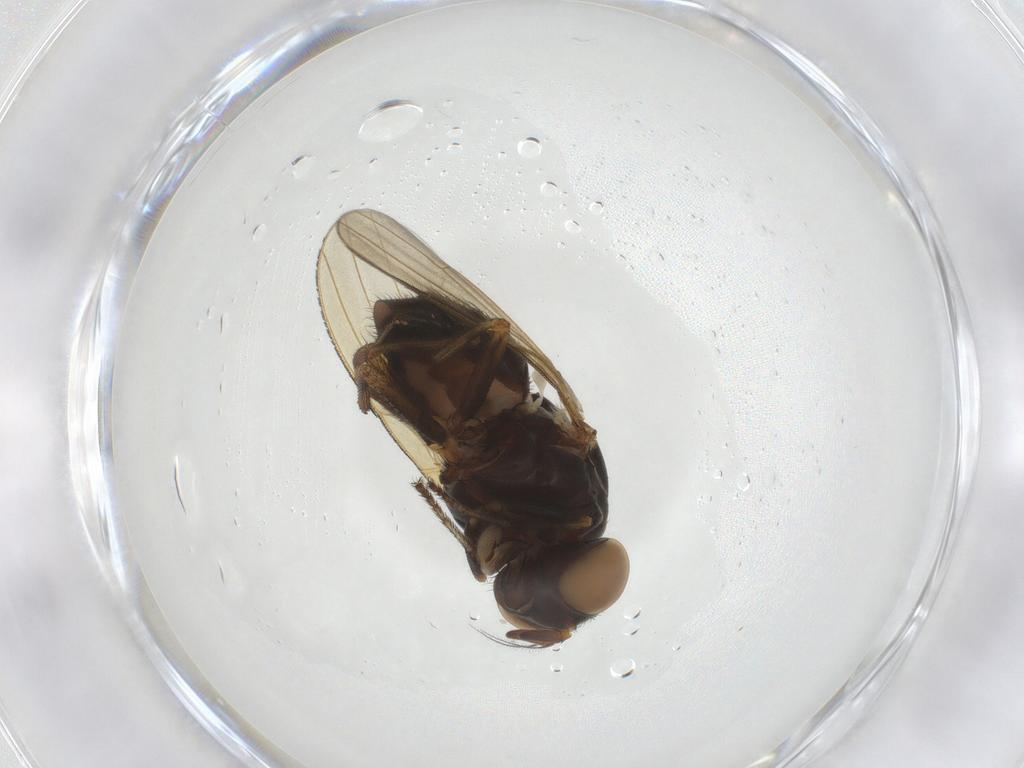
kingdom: Animalia
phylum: Arthropoda
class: Insecta
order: Diptera
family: Lauxaniidae
